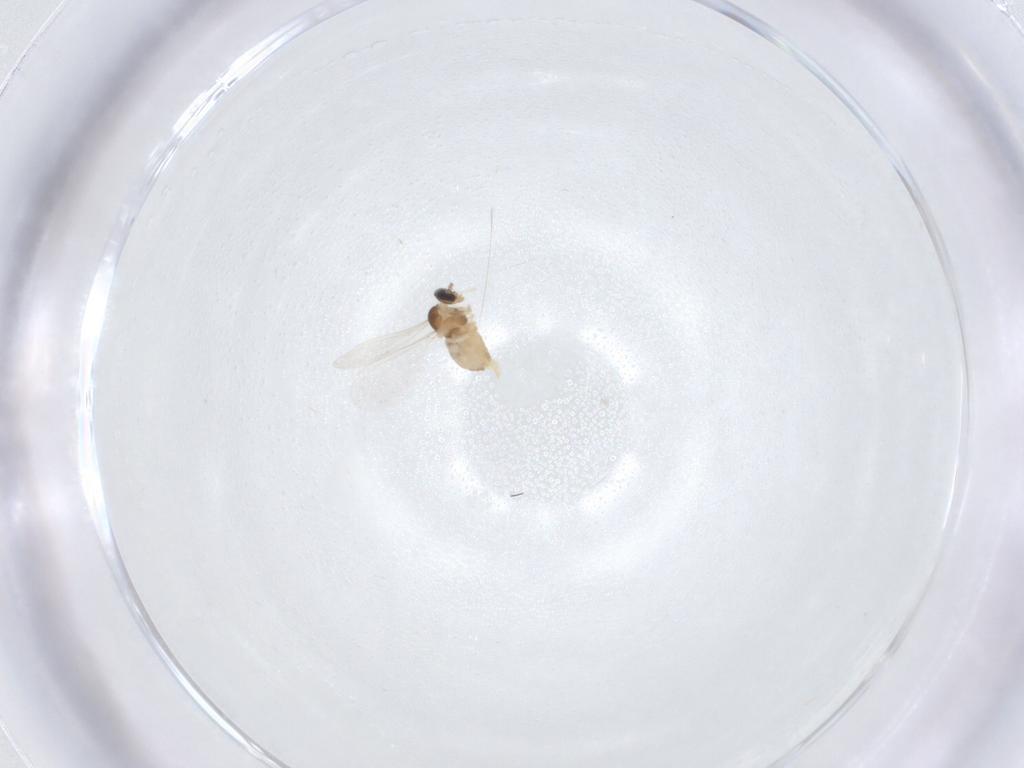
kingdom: Animalia
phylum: Arthropoda
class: Insecta
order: Diptera
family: Cecidomyiidae
